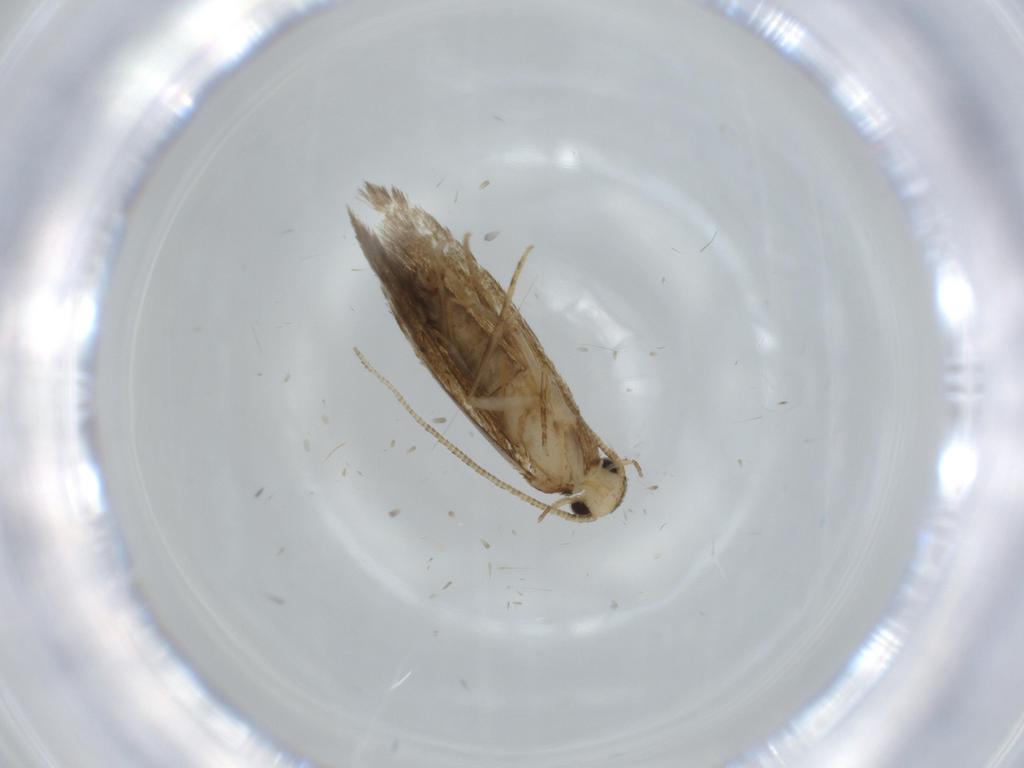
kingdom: Animalia
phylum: Arthropoda
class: Insecta
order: Lepidoptera
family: Tineidae
